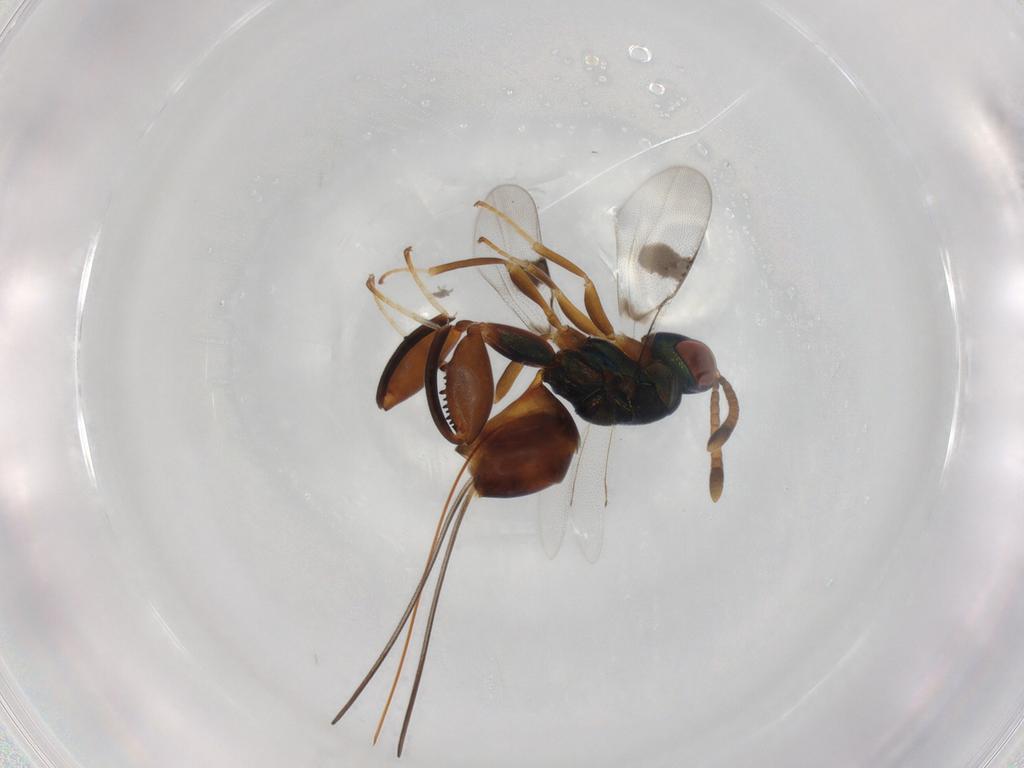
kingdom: Animalia
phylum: Arthropoda
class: Insecta
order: Hymenoptera
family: Torymidae
